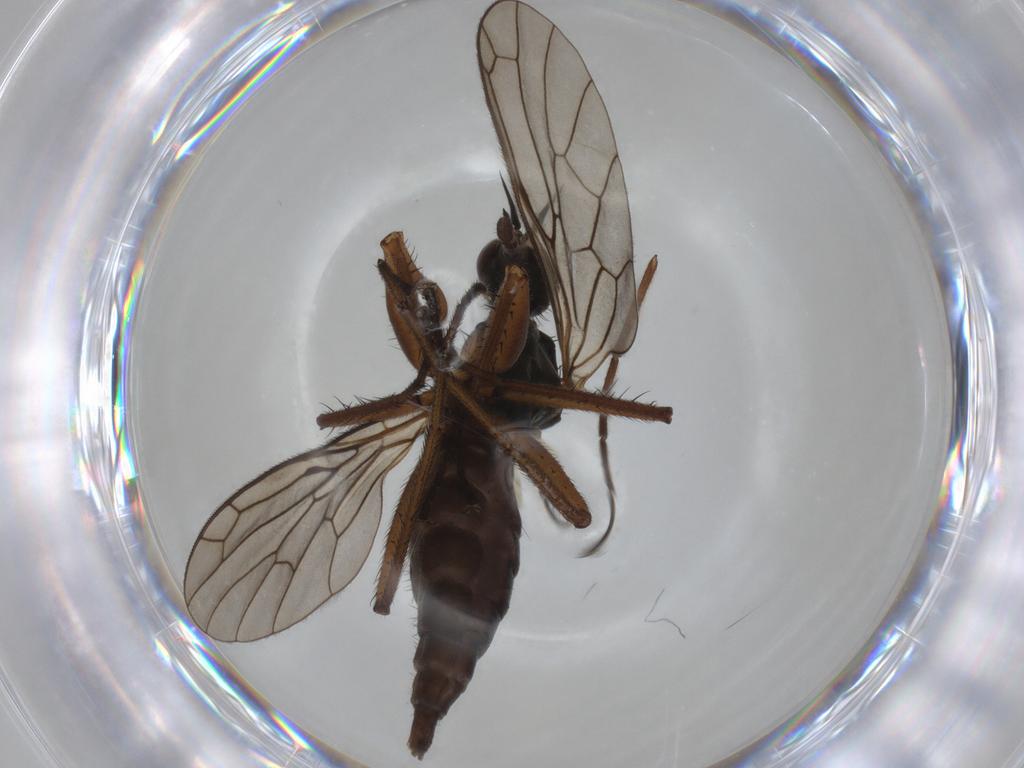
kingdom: Animalia
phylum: Arthropoda
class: Insecta
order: Diptera
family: Empididae
